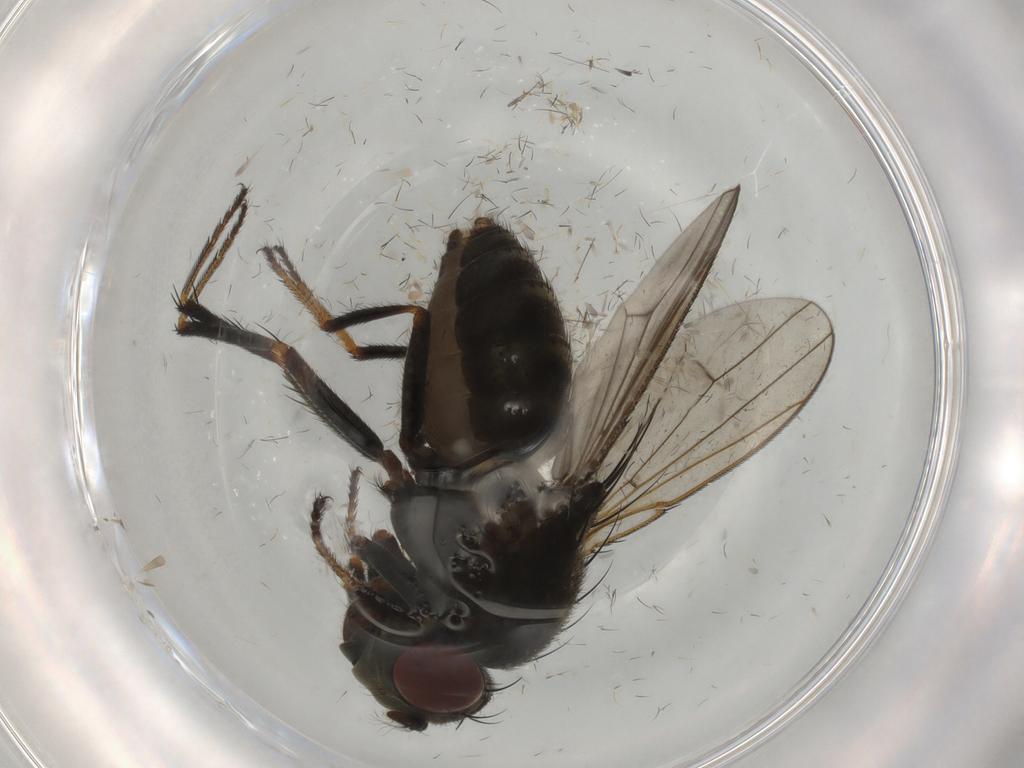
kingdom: Animalia
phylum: Arthropoda
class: Insecta
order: Diptera
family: Ephydridae
